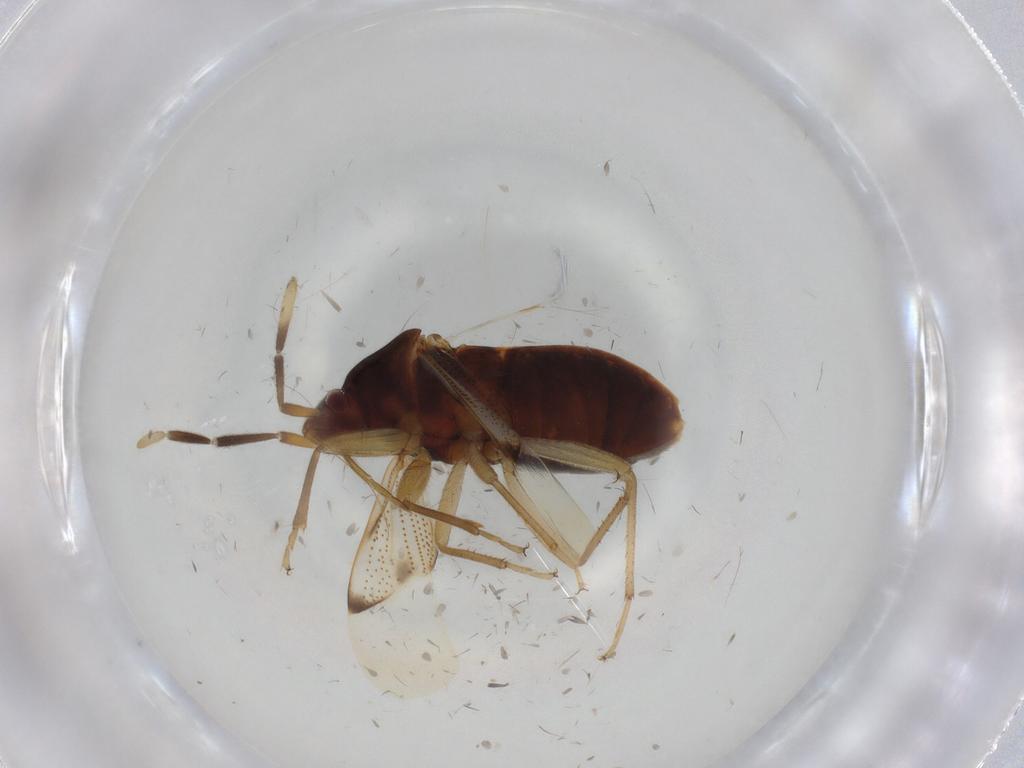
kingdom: Animalia
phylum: Arthropoda
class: Insecta
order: Hemiptera
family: Rhyparochromidae
